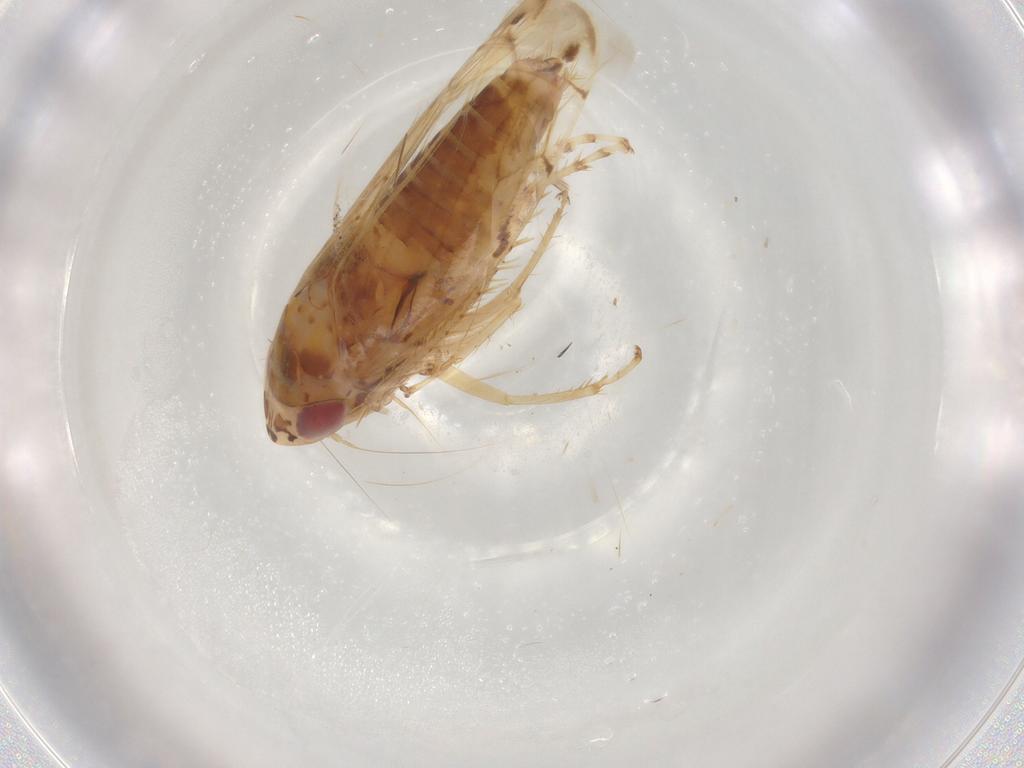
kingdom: Animalia
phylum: Arthropoda
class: Insecta
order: Hemiptera
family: Cicadellidae
